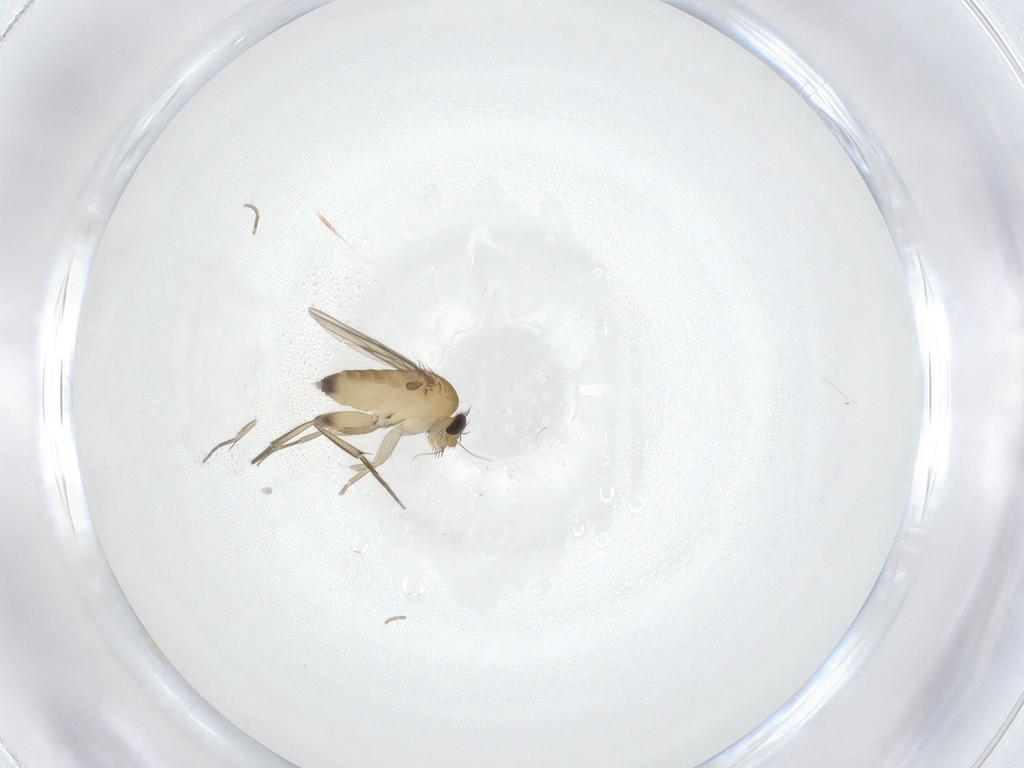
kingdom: Animalia
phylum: Arthropoda
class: Insecta
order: Diptera
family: Phoridae
